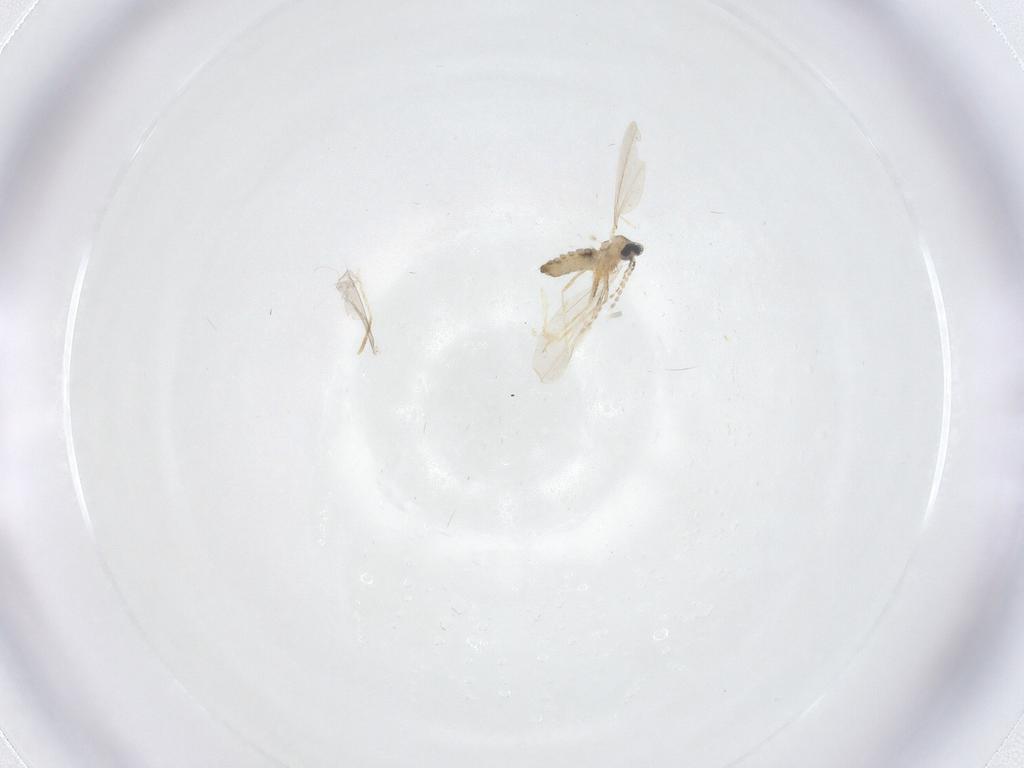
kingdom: Animalia
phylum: Arthropoda
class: Insecta
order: Diptera
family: Cecidomyiidae
